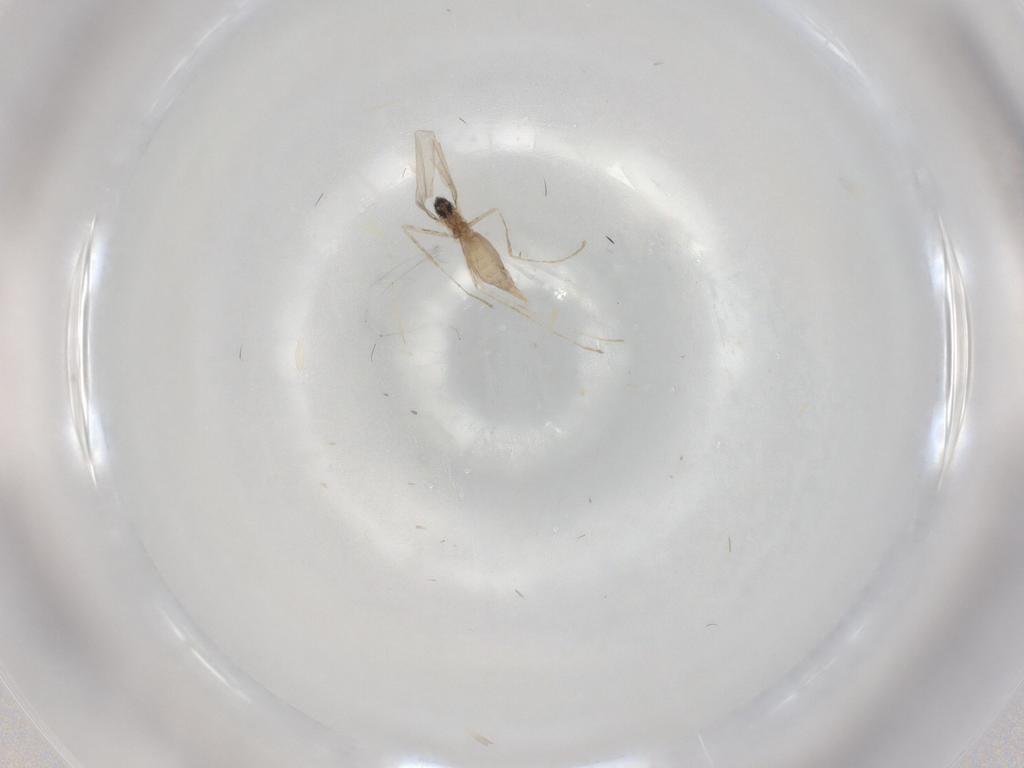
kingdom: Animalia
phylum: Arthropoda
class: Insecta
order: Diptera
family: Cecidomyiidae
